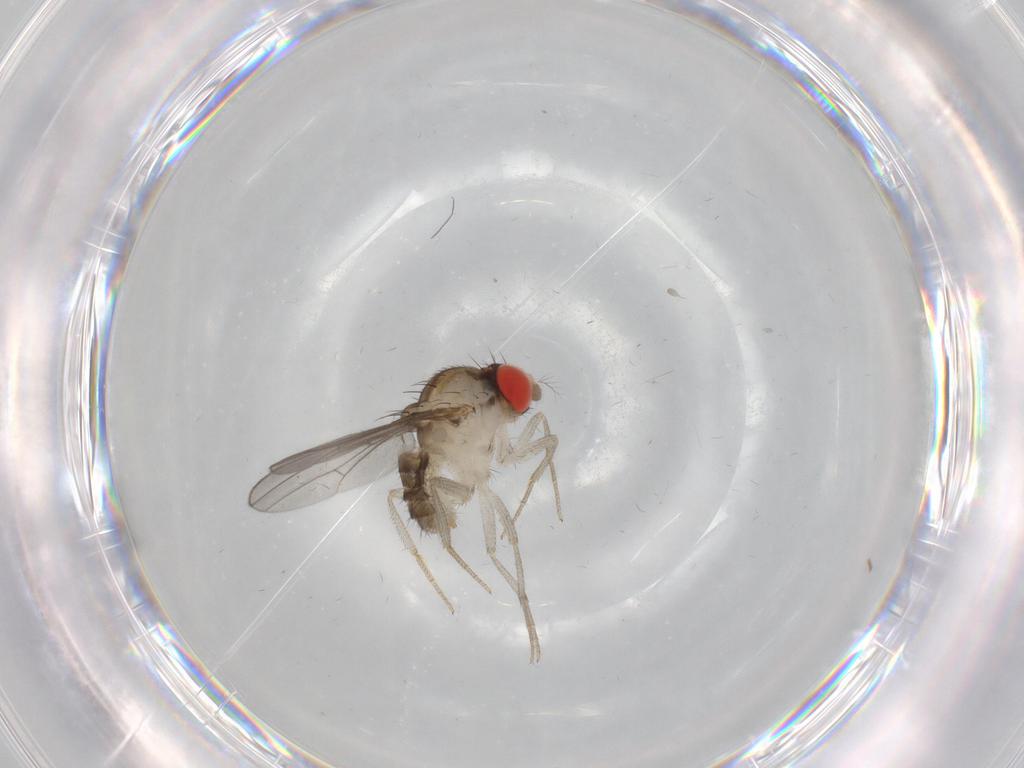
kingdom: Animalia
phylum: Arthropoda
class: Insecta
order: Diptera
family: Drosophilidae
